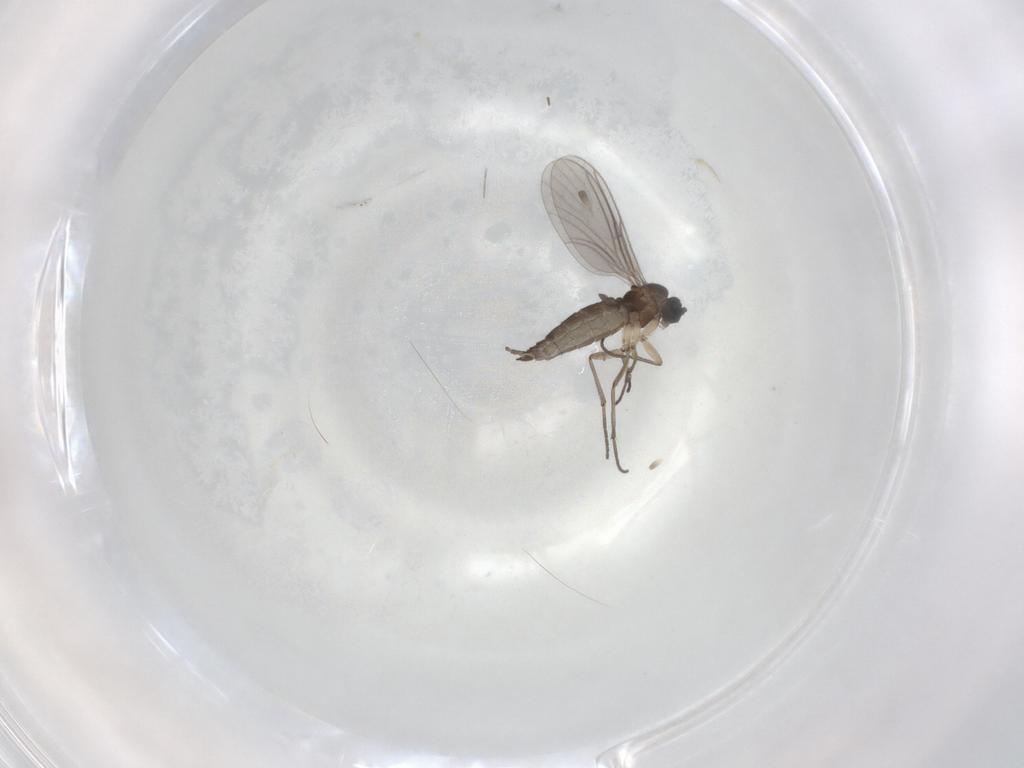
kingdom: Animalia
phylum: Arthropoda
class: Insecta
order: Diptera
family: Sciaridae
